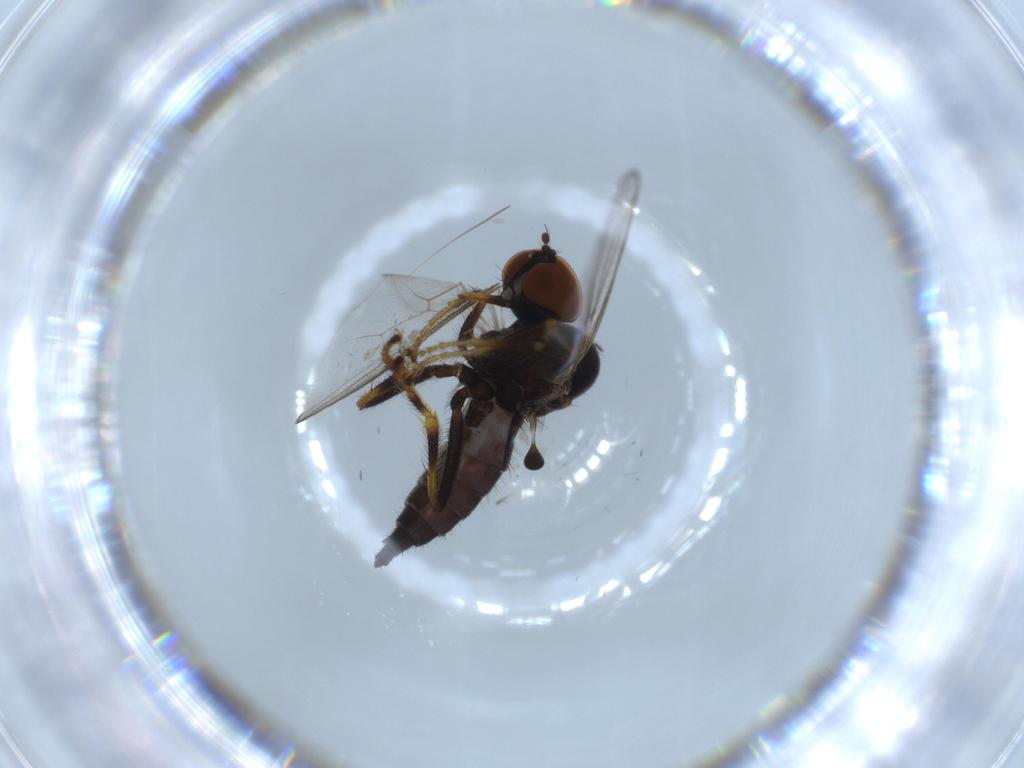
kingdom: Animalia
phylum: Arthropoda
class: Insecta
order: Diptera
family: Hybotidae
